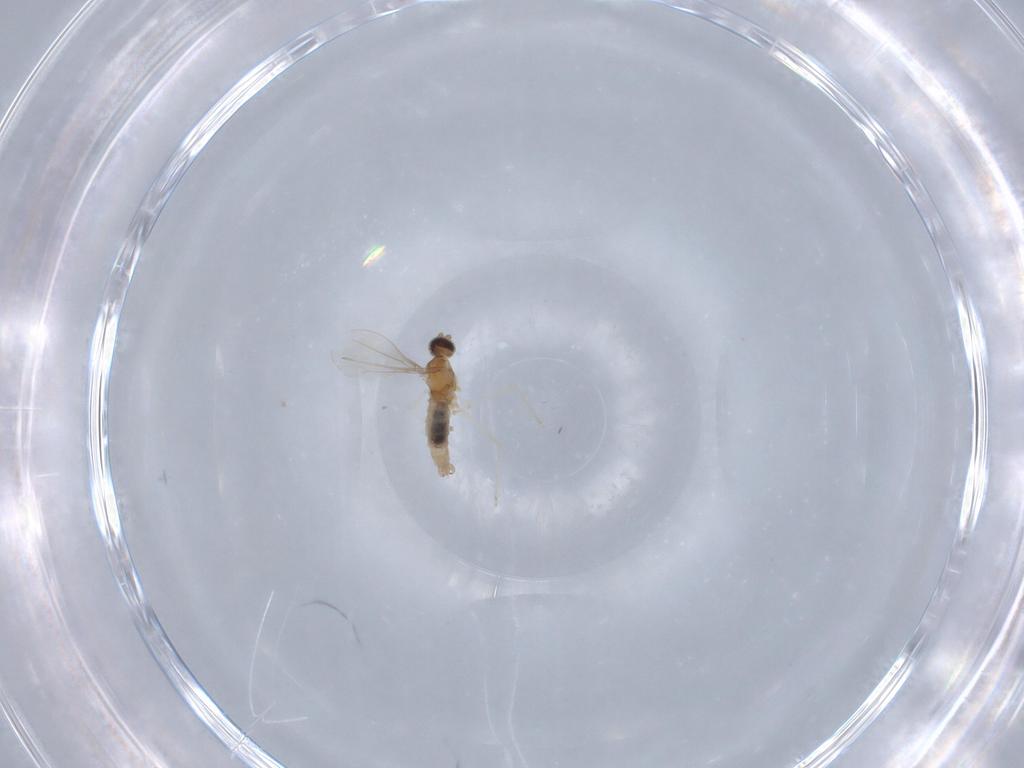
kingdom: Animalia
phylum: Arthropoda
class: Insecta
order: Diptera
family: Cecidomyiidae
